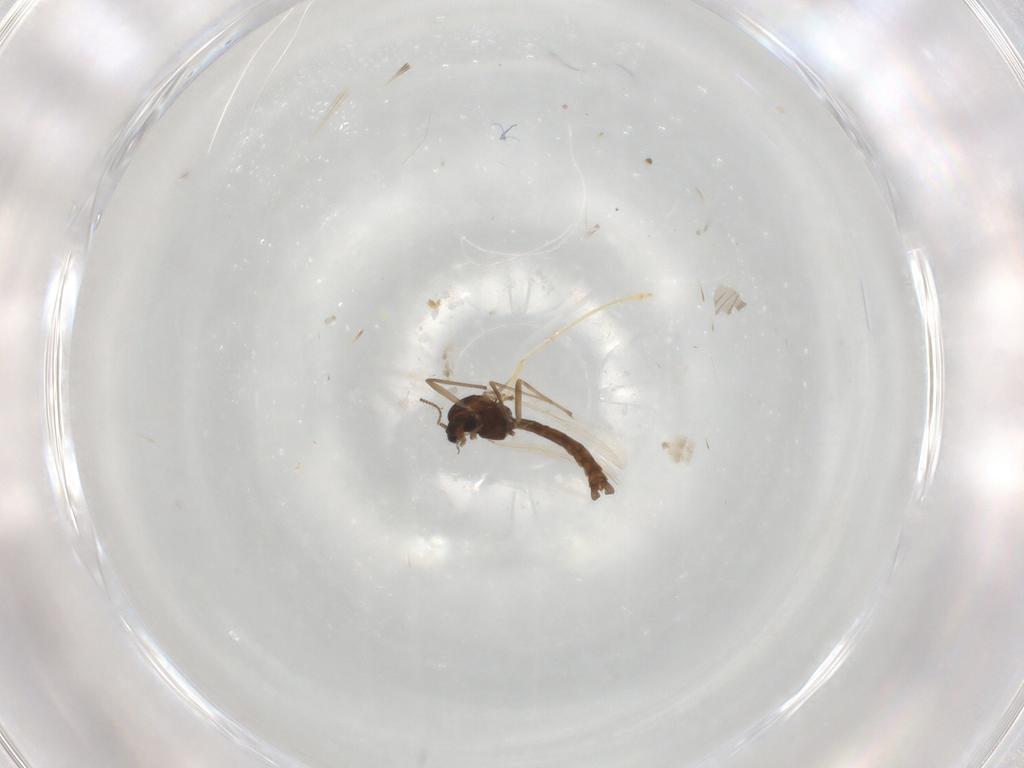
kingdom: Animalia
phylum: Arthropoda
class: Insecta
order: Diptera
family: Chironomidae
